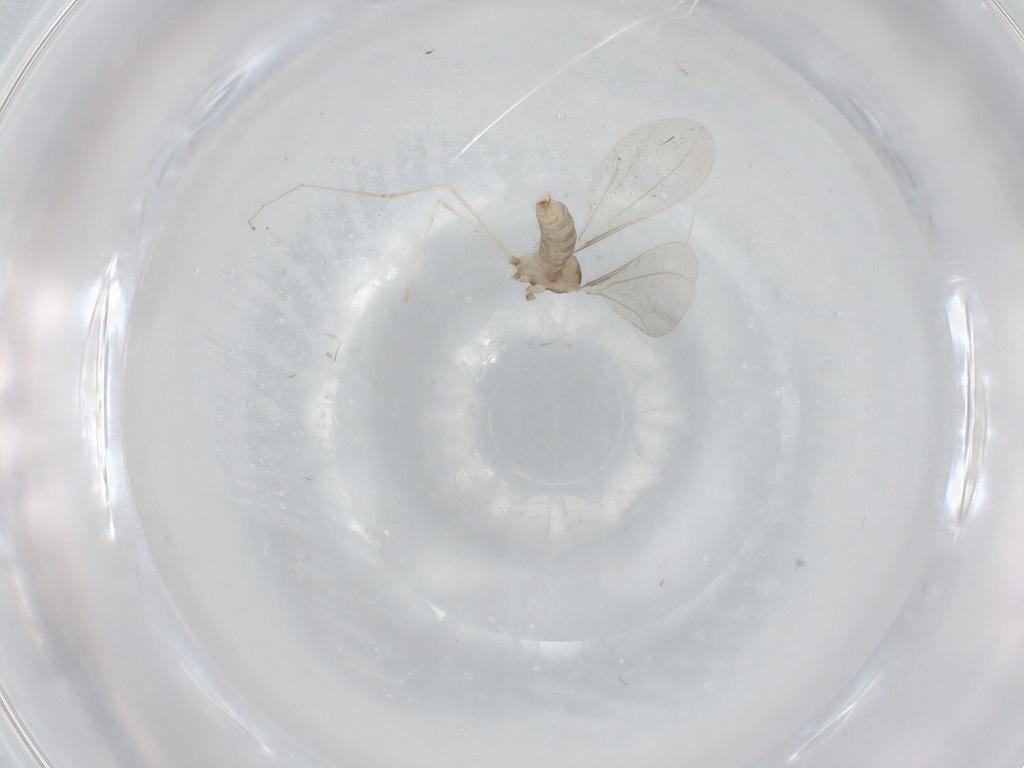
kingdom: Animalia
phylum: Arthropoda
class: Insecta
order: Diptera
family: Cecidomyiidae
